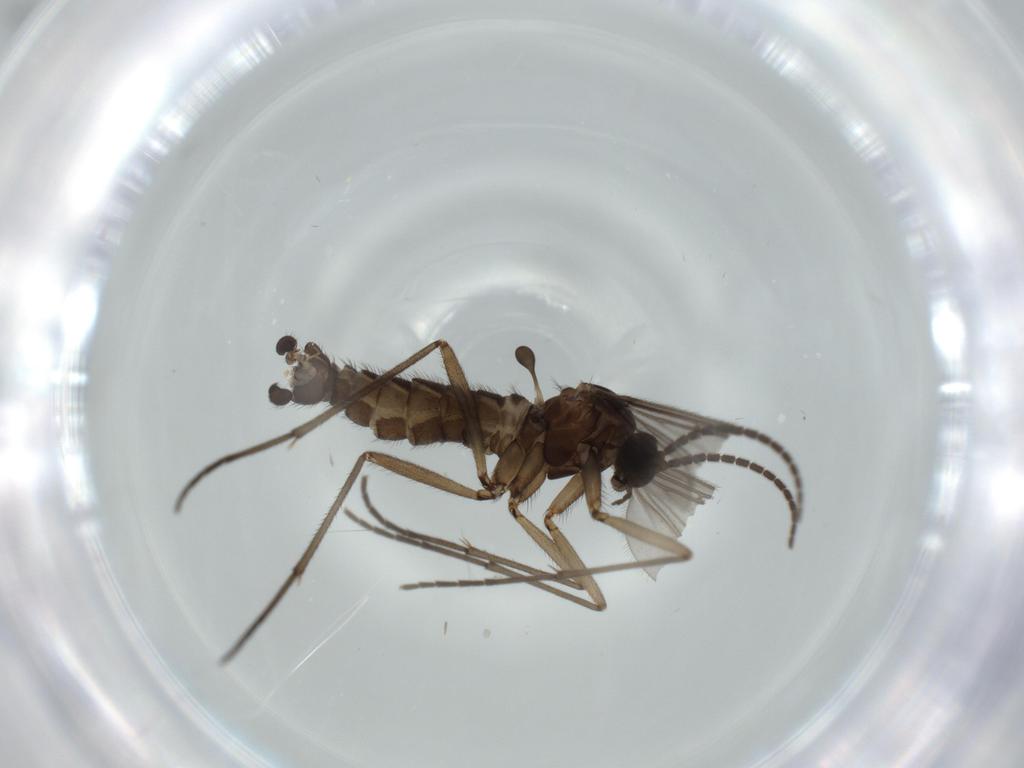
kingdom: Animalia
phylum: Arthropoda
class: Insecta
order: Diptera
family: Sciaridae
